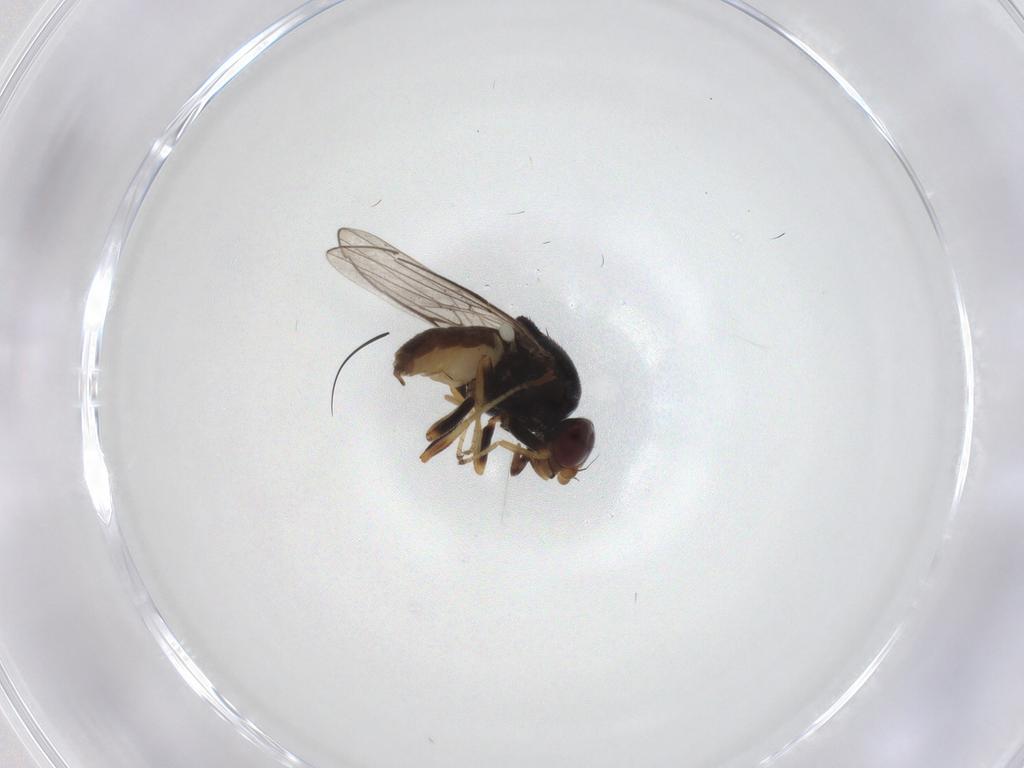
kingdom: Animalia
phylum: Arthropoda
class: Insecta
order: Diptera
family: Chloropidae
